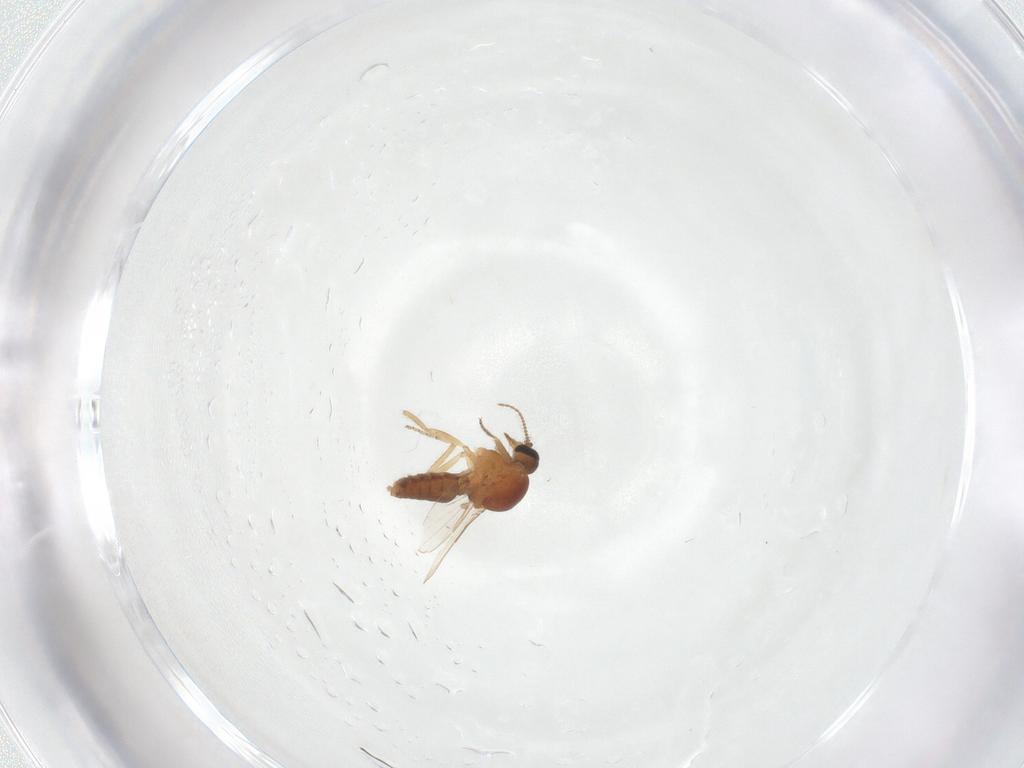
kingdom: Animalia
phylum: Arthropoda
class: Insecta
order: Diptera
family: Ceratopogonidae
